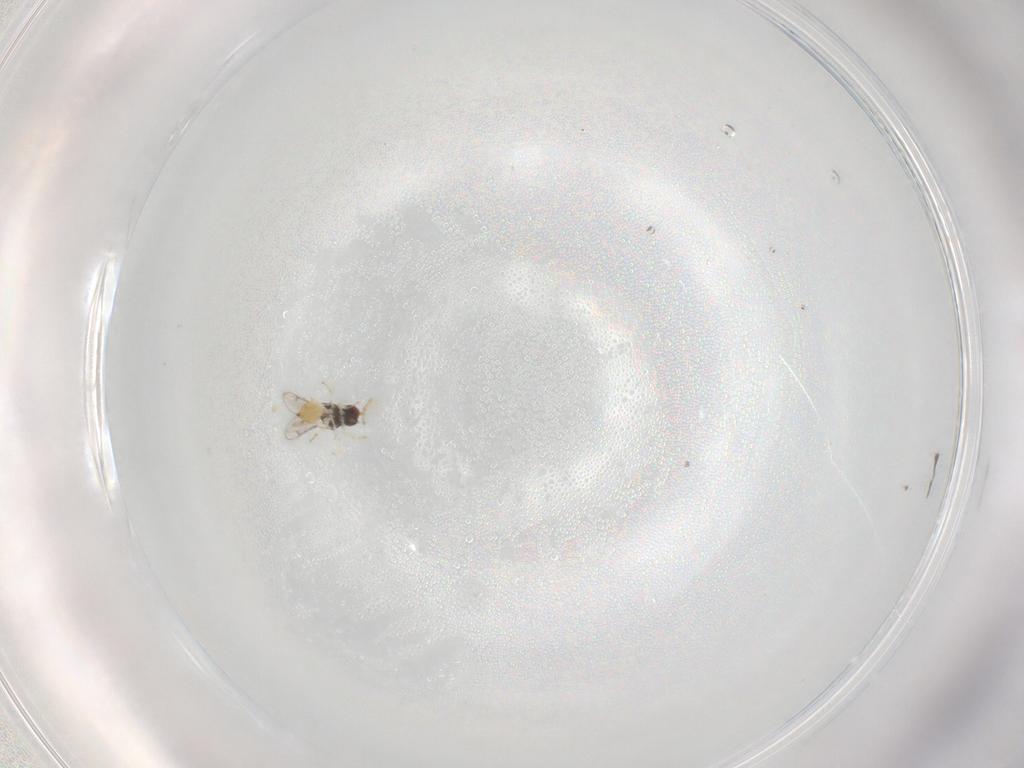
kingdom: Animalia
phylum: Arthropoda
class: Insecta
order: Hymenoptera
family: Eulophidae
